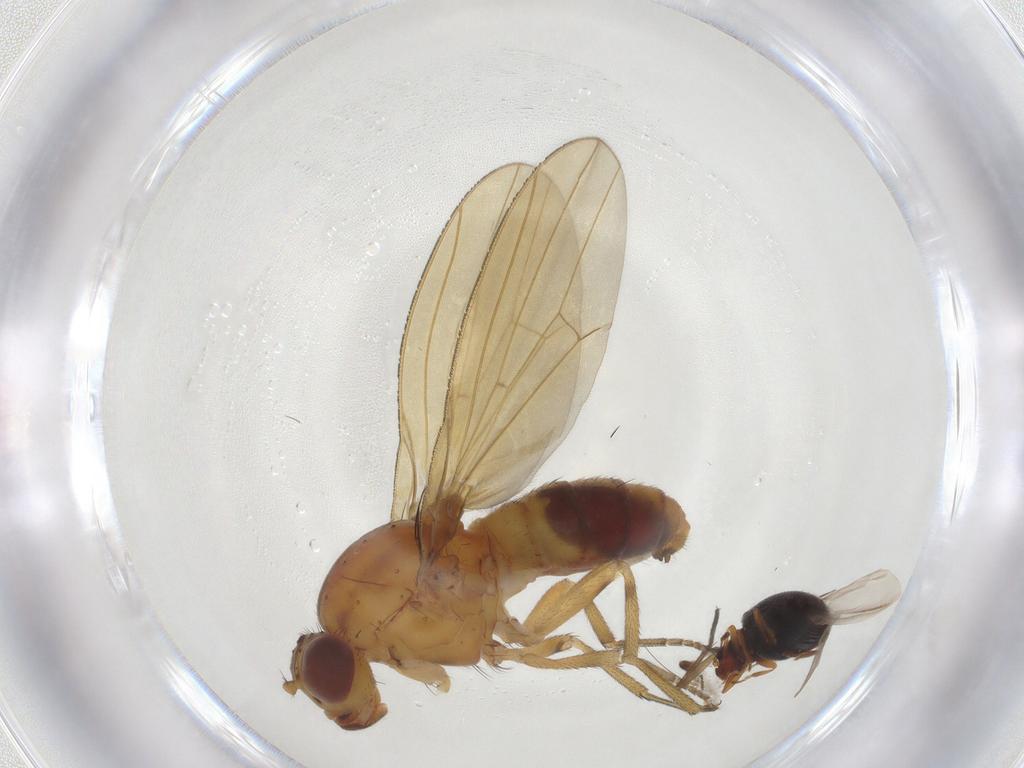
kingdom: Animalia
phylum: Arthropoda
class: Insecta
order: Coleoptera
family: Latridiidae
